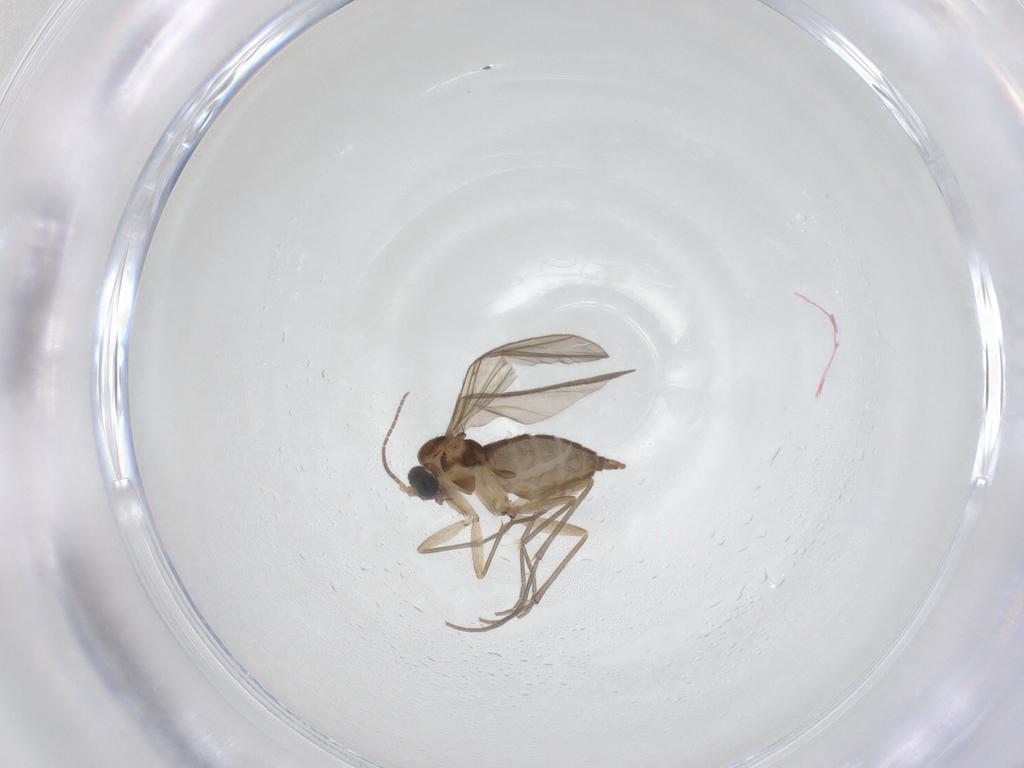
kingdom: Animalia
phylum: Arthropoda
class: Insecta
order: Diptera
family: Sciaridae
